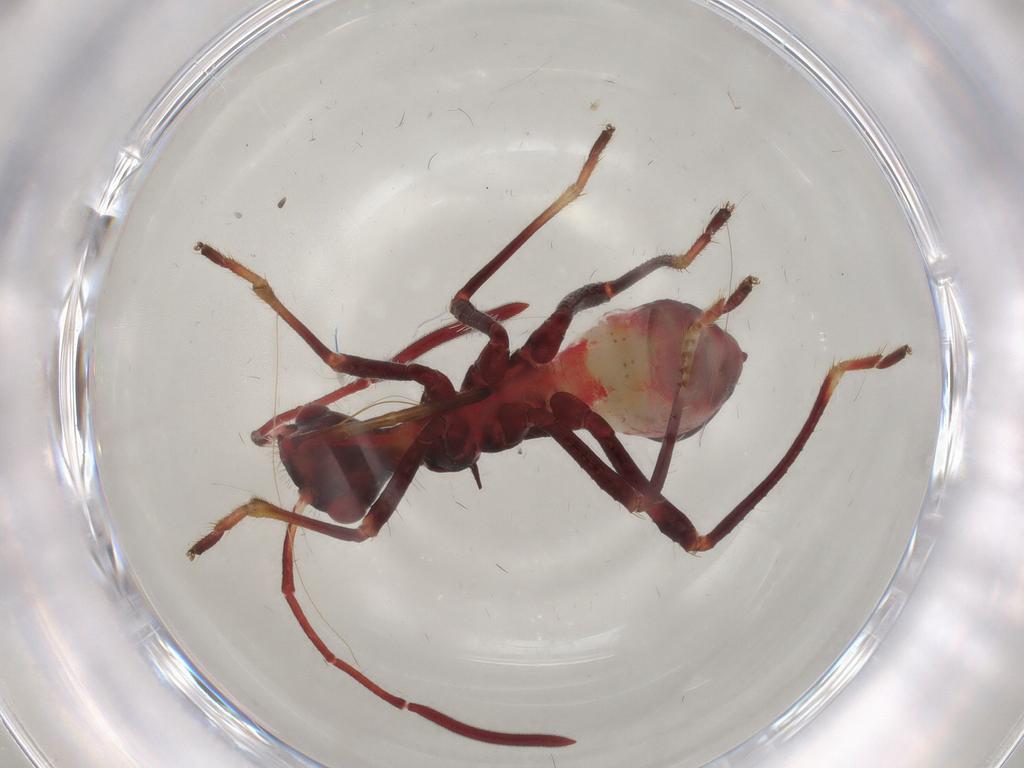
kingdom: Animalia
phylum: Arthropoda
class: Insecta
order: Hemiptera
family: Alydidae
